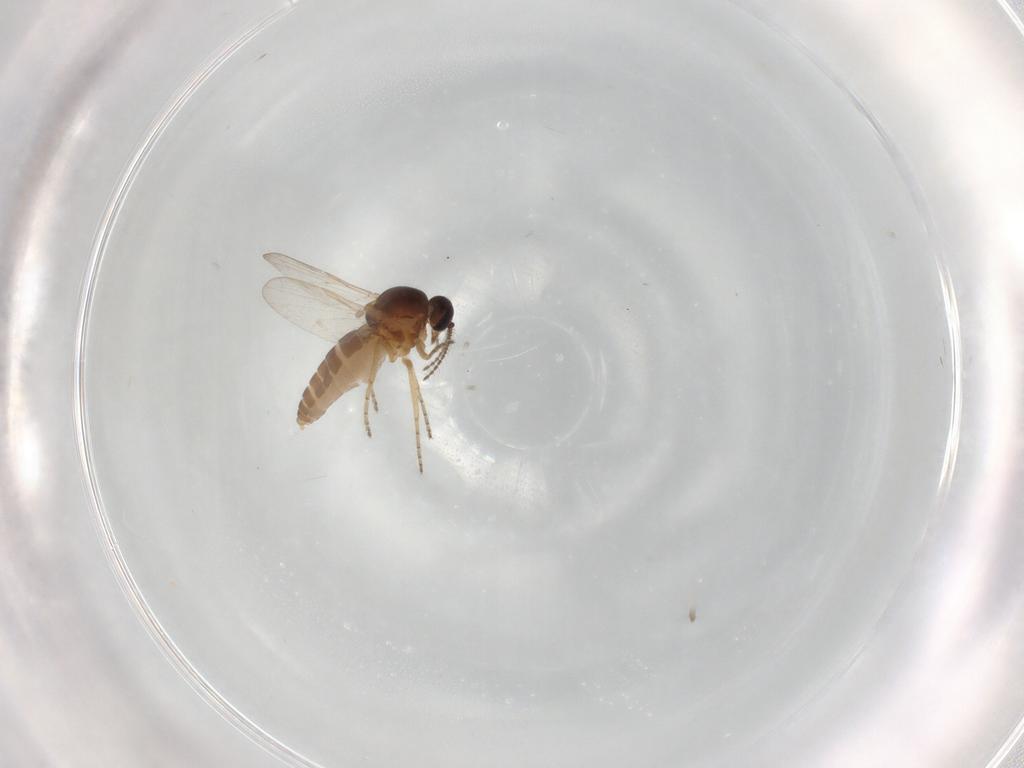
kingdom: Animalia
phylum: Arthropoda
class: Insecta
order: Diptera
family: Ceratopogonidae
